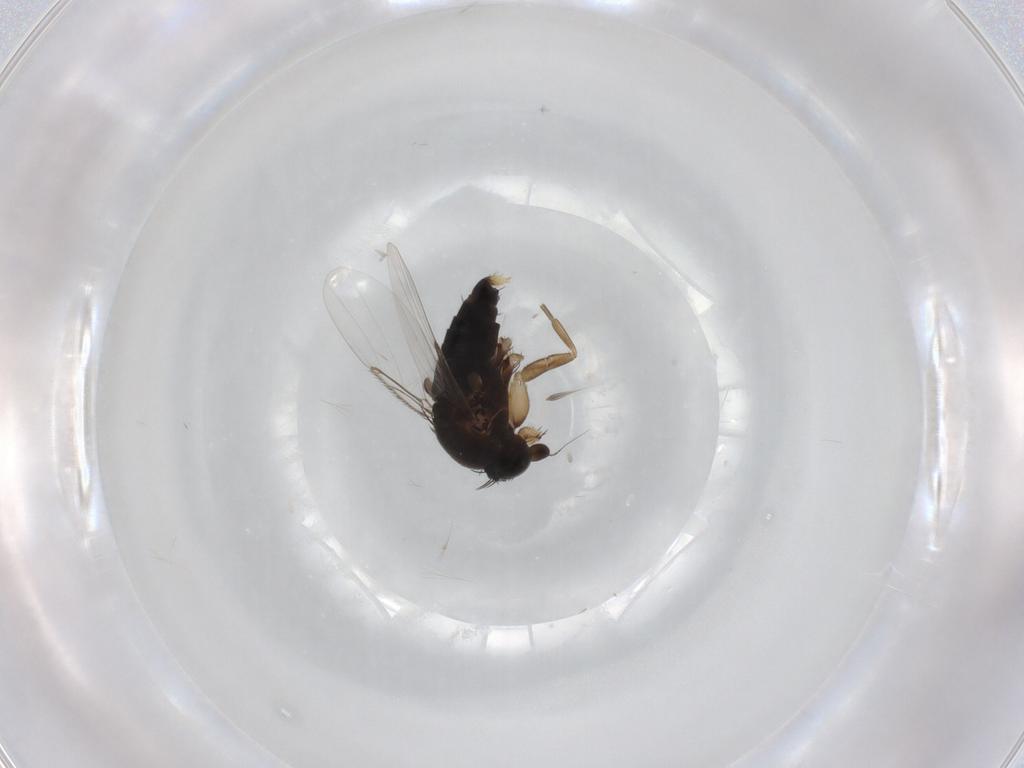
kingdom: Animalia
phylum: Arthropoda
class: Insecta
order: Diptera
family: Phoridae
